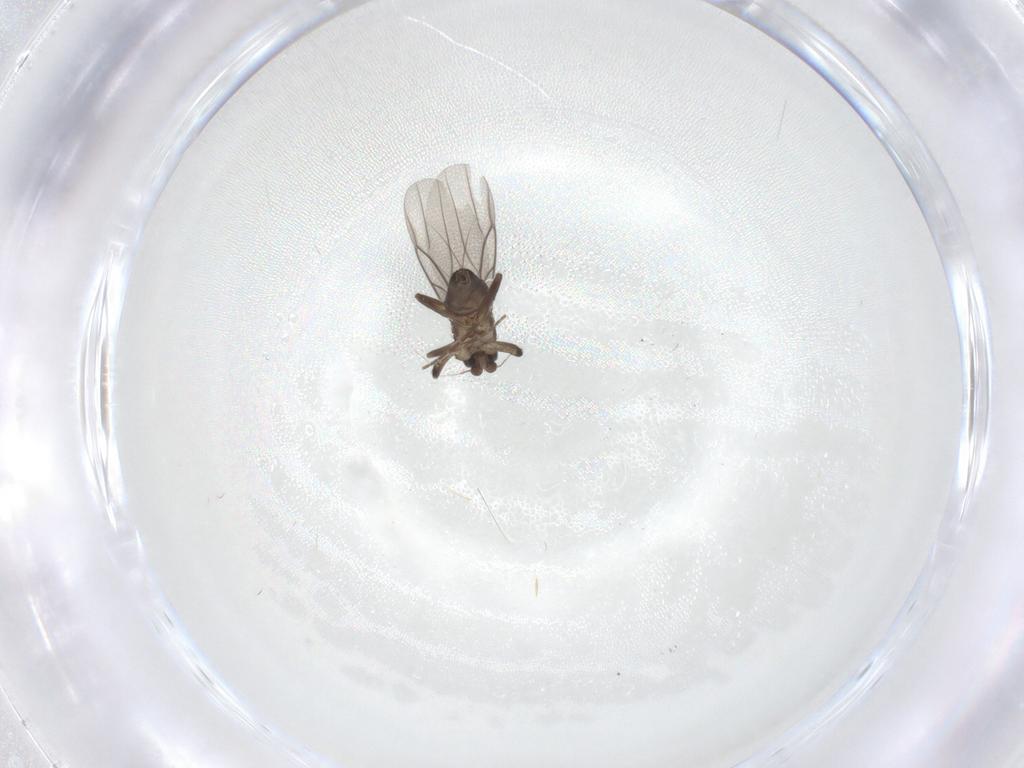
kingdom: Animalia
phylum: Arthropoda
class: Insecta
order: Diptera
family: Phoridae
